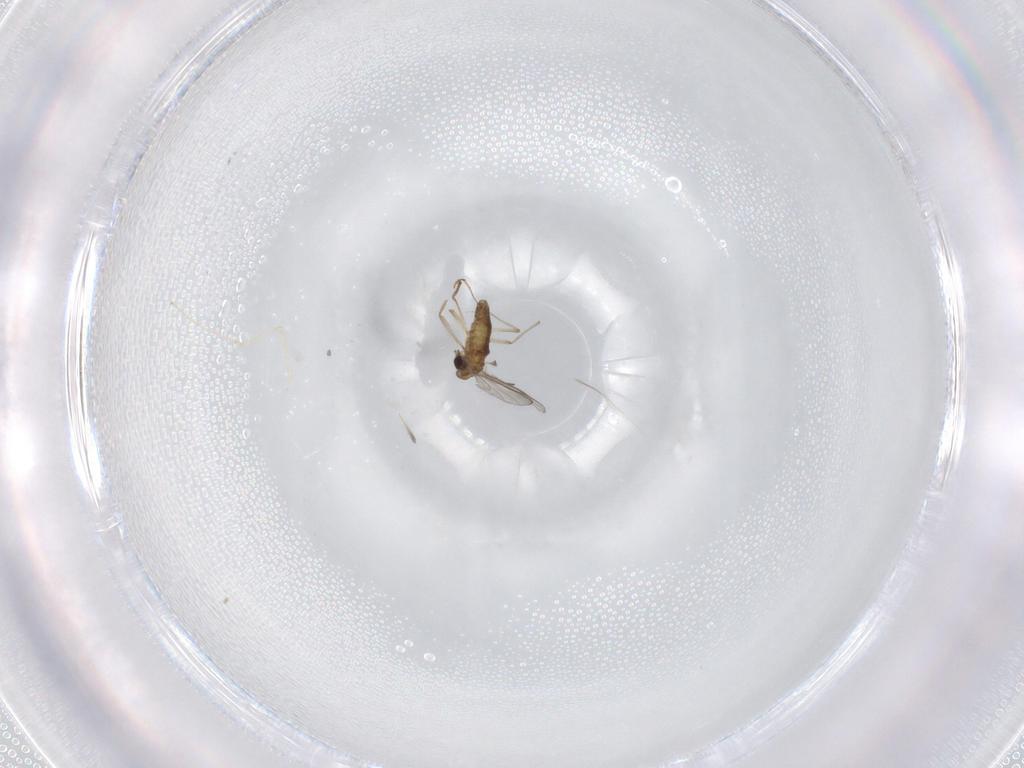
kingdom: Animalia
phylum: Arthropoda
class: Insecta
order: Diptera
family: Chironomidae
